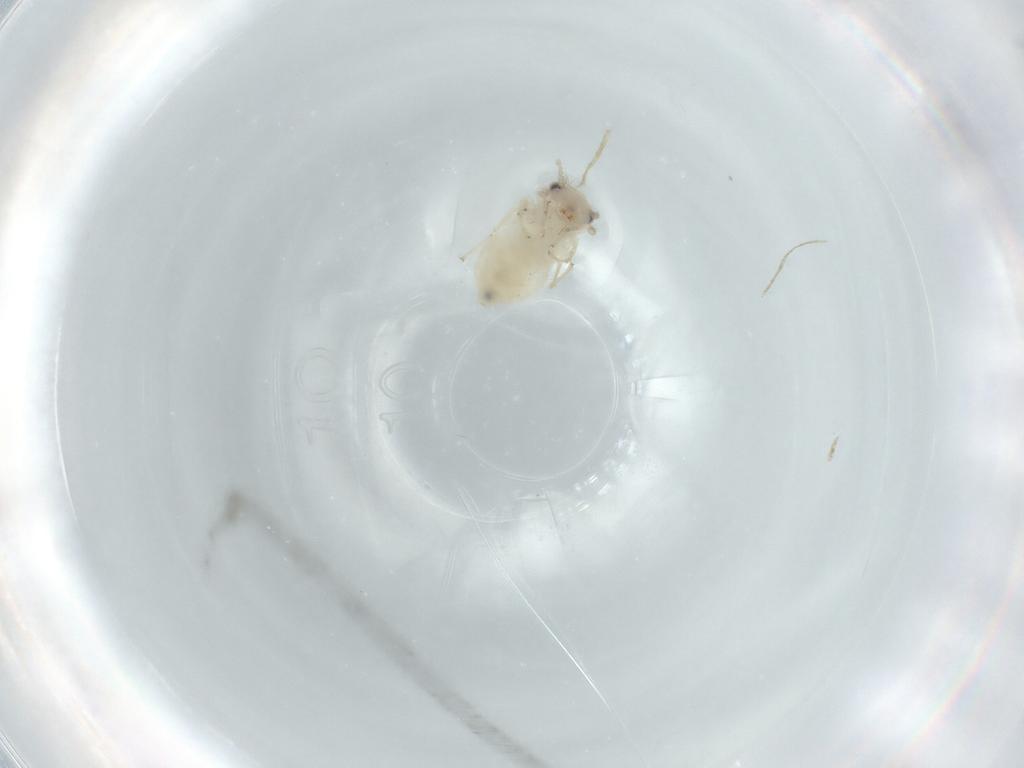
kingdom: Animalia
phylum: Arthropoda
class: Insecta
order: Psocodea
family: Lepidopsocidae
